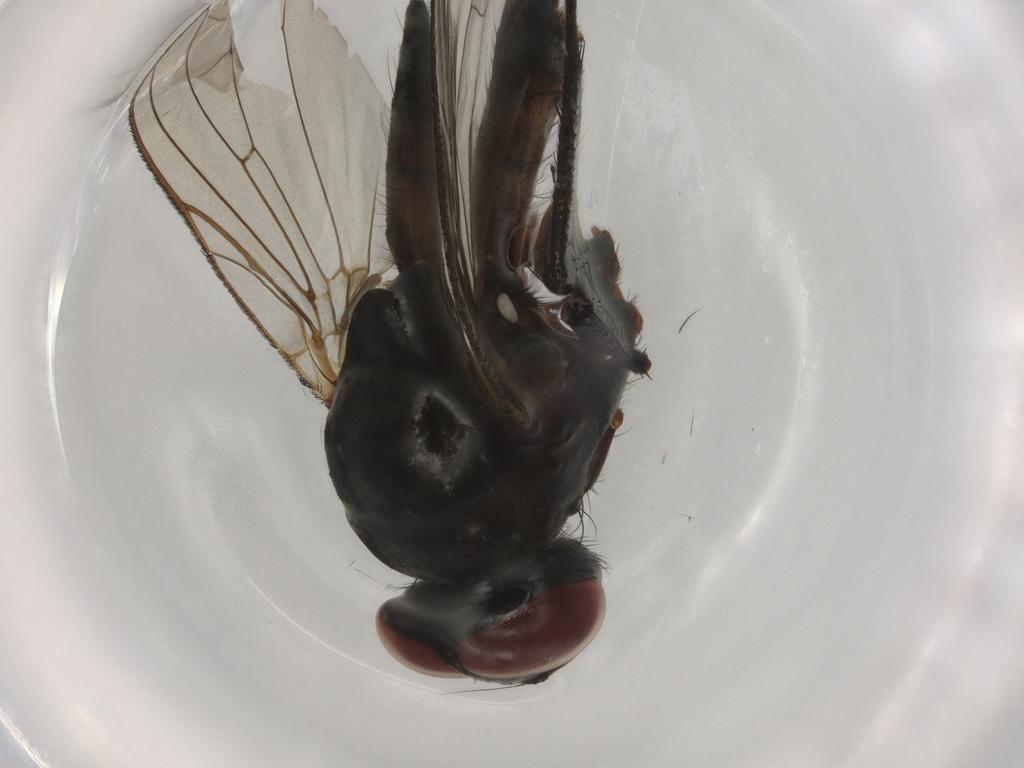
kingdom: Animalia
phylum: Arthropoda
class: Insecta
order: Diptera
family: Anthomyiidae
